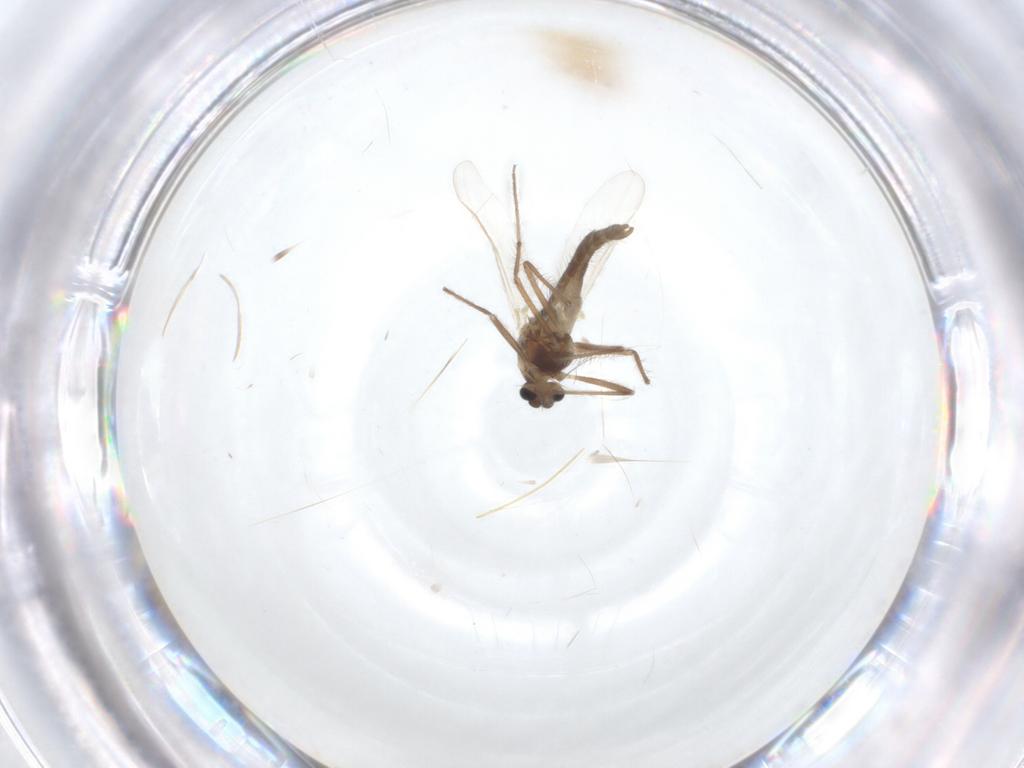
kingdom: Animalia
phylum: Arthropoda
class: Insecta
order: Diptera
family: Chironomidae
